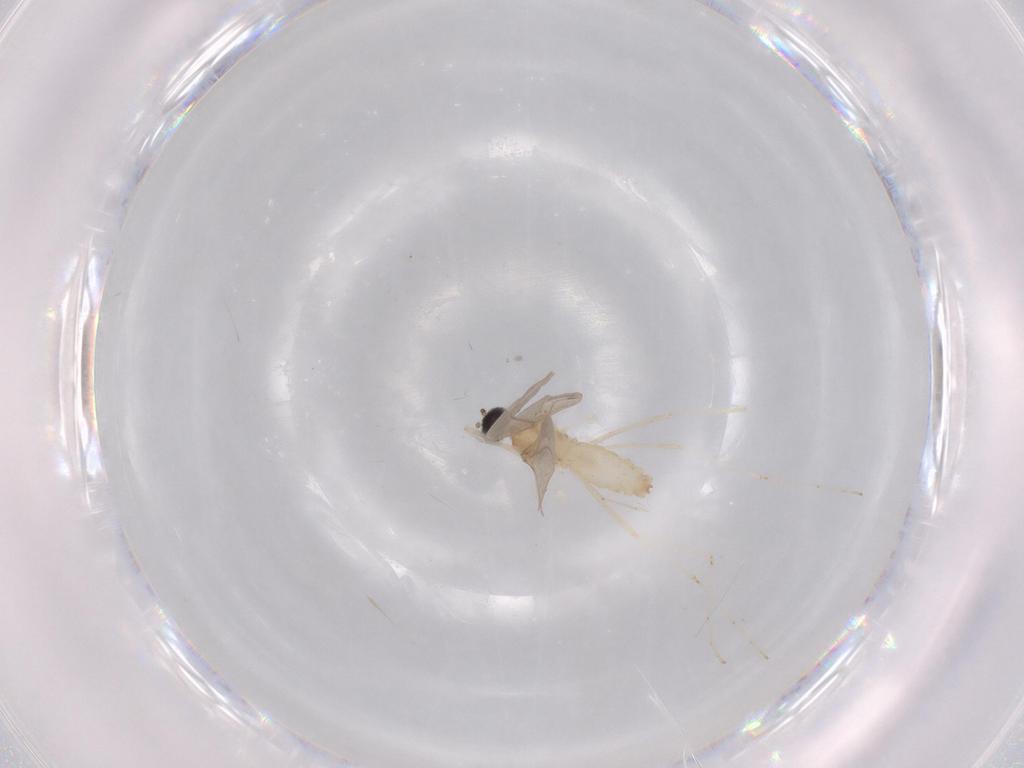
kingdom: Animalia
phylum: Arthropoda
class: Insecta
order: Diptera
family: Cecidomyiidae
